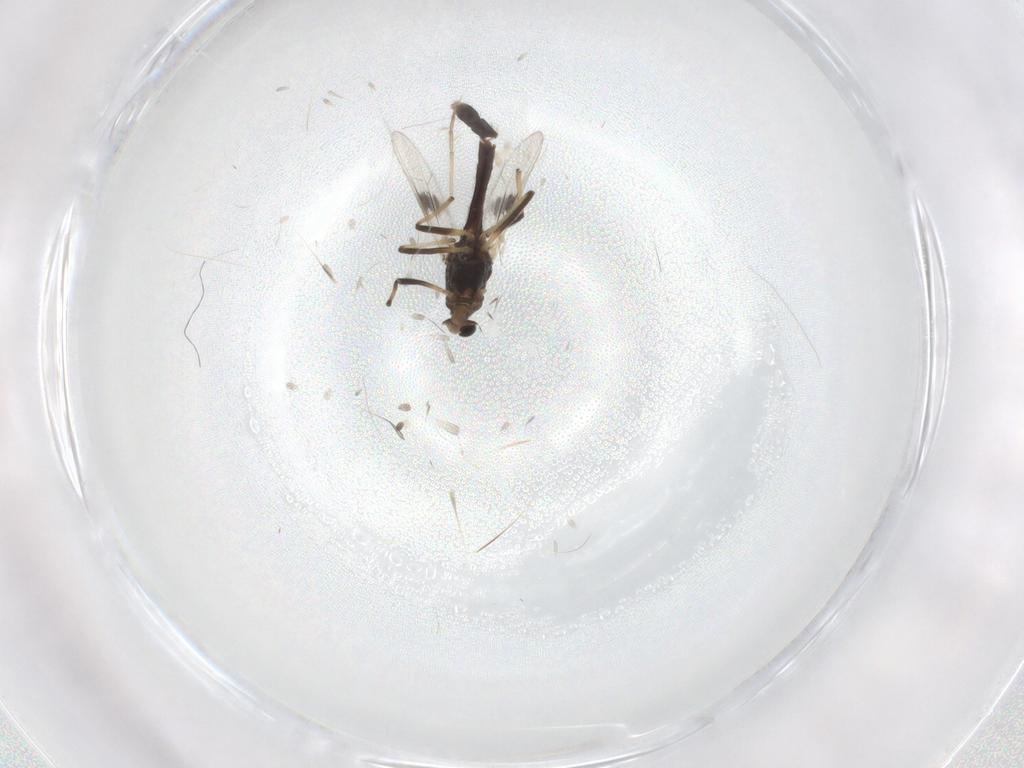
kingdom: Animalia
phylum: Arthropoda
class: Insecta
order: Diptera
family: Chironomidae
